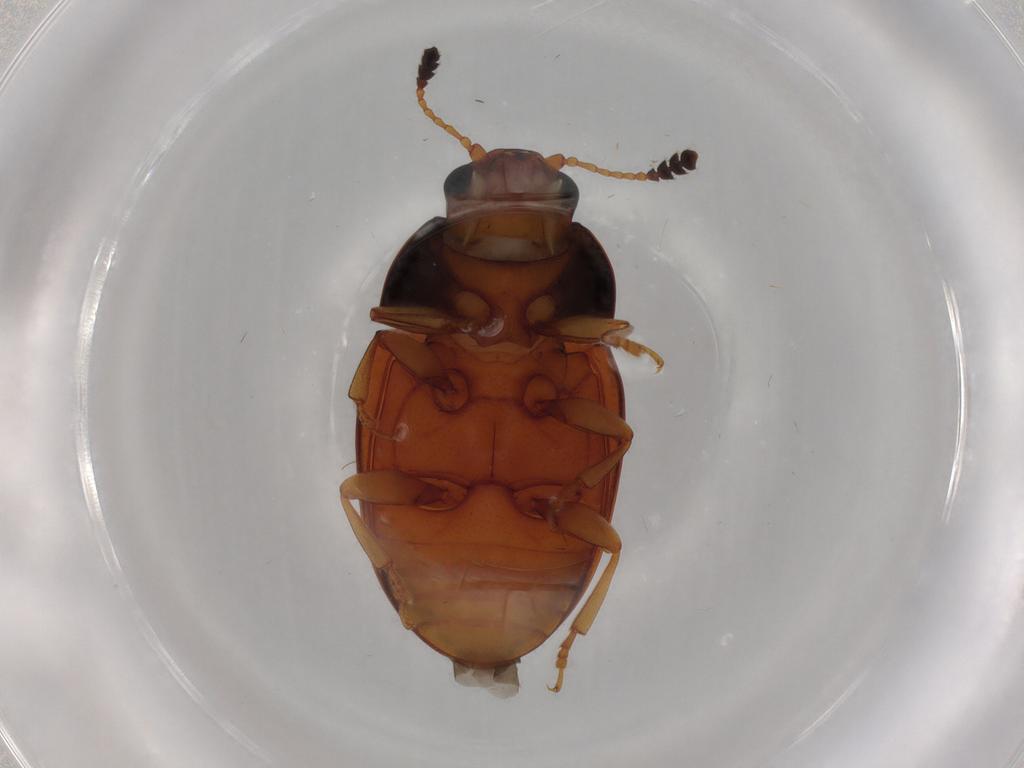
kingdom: Animalia
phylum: Arthropoda
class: Insecta
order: Coleoptera
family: Erotylidae
